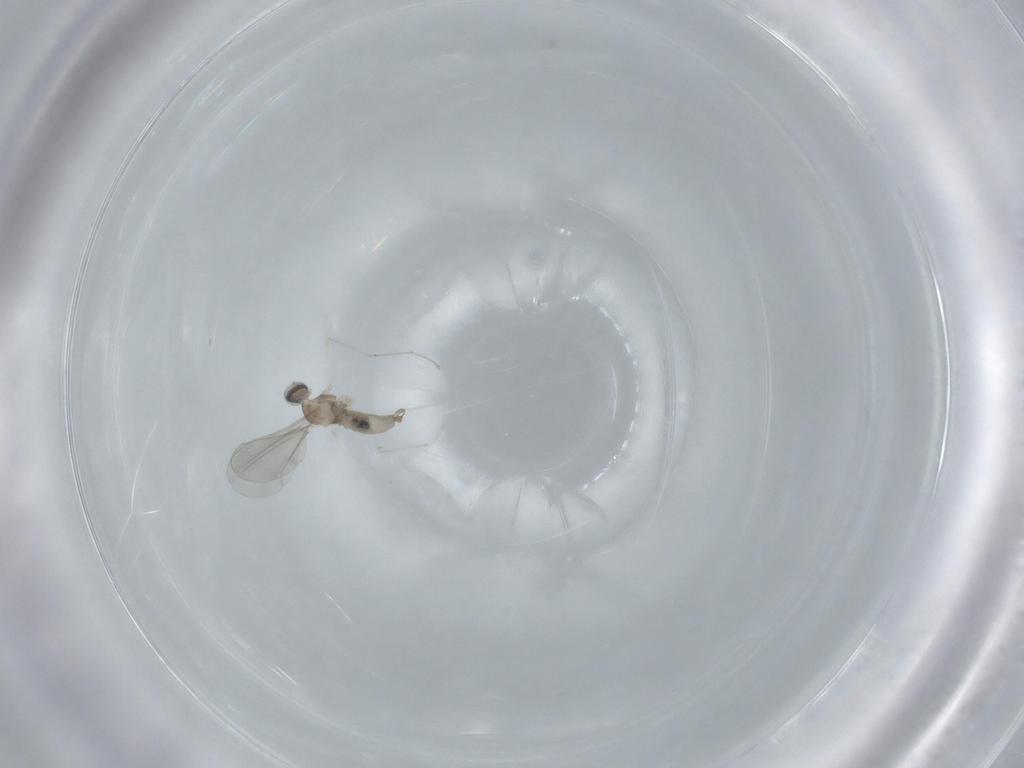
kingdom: Animalia
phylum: Arthropoda
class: Insecta
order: Diptera
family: Cecidomyiidae
